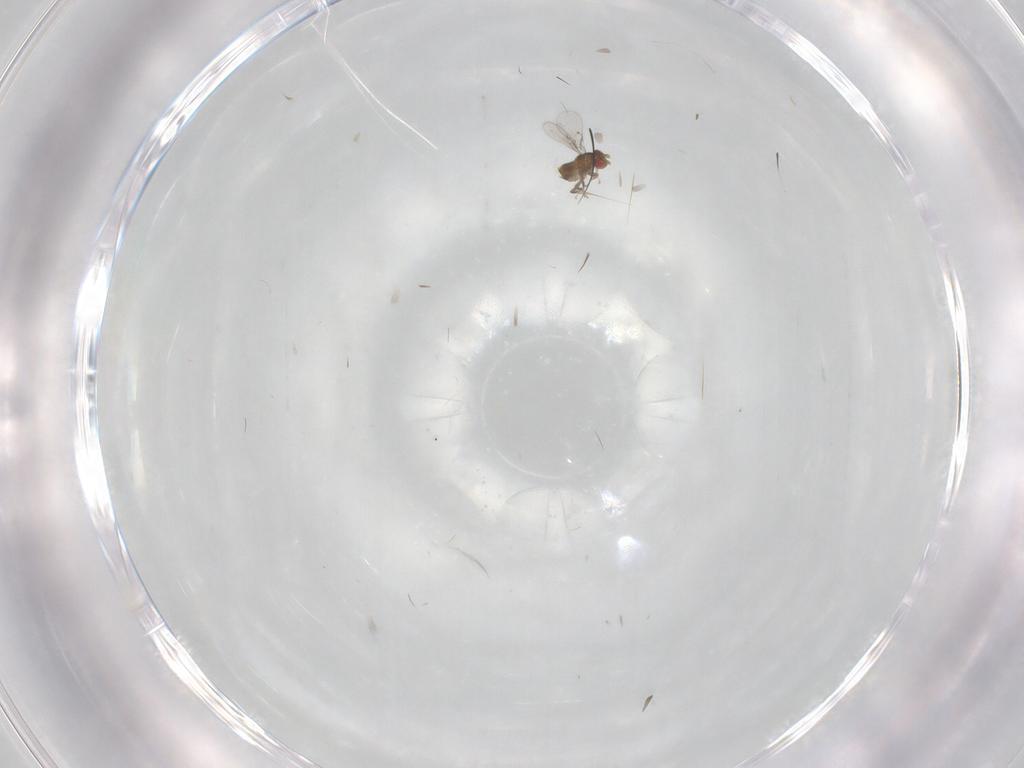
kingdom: Animalia
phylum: Arthropoda
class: Insecta
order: Hymenoptera
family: Trichogrammatidae
